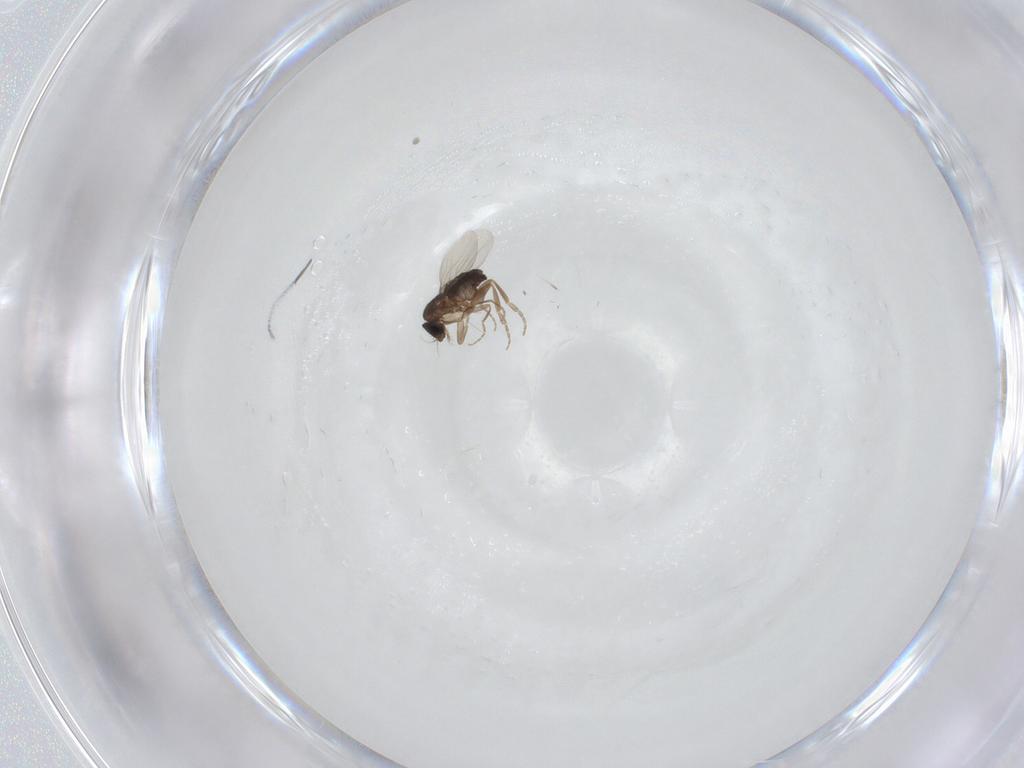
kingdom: Animalia
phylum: Arthropoda
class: Insecta
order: Diptera
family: Phoridae
